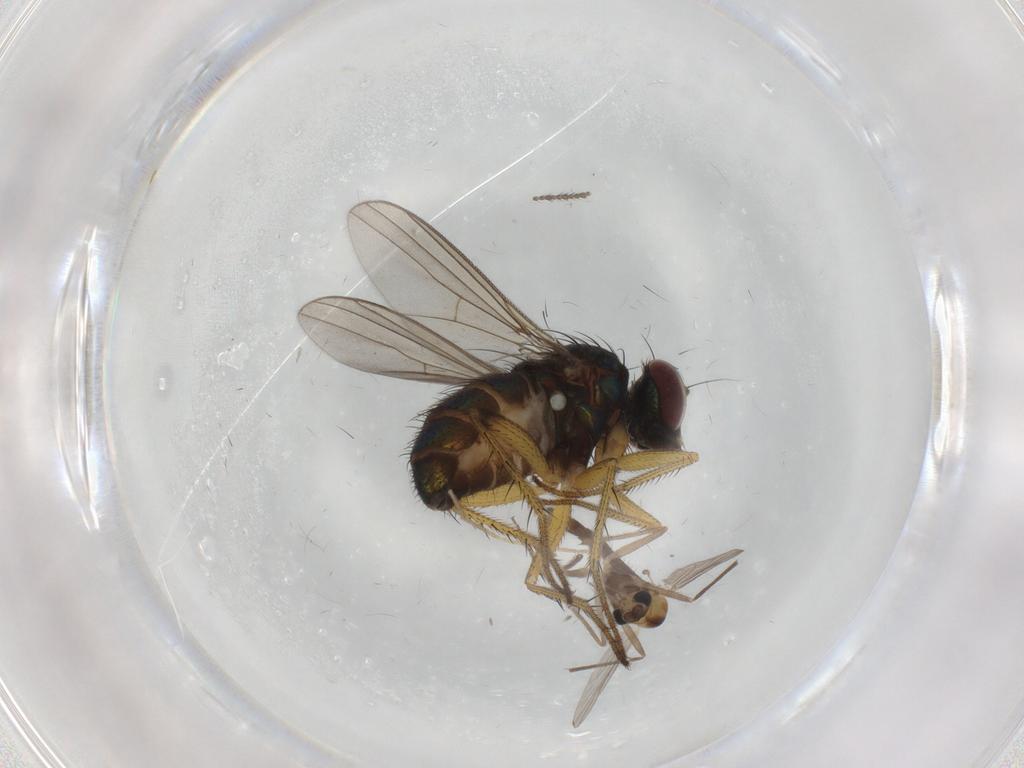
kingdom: Animalia
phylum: Arthropoda
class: Insecta
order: Diptera
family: Dolichopodidae
